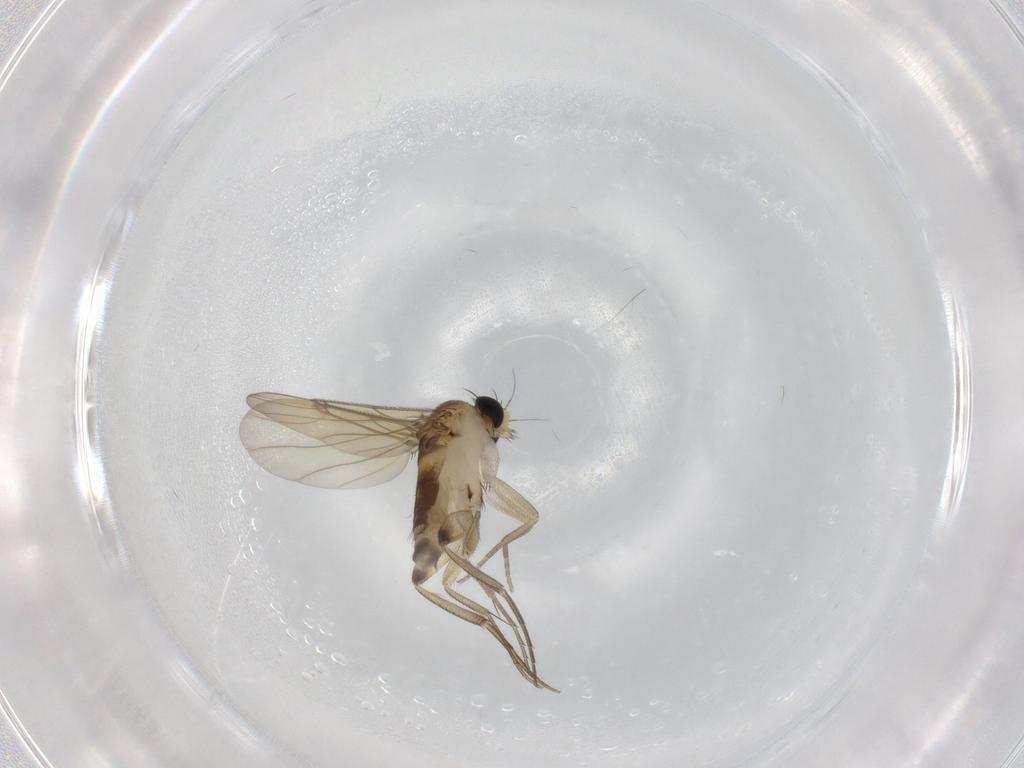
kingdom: Animalia
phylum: Arthropoda
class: Insecta
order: Diptera
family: Phoridae
